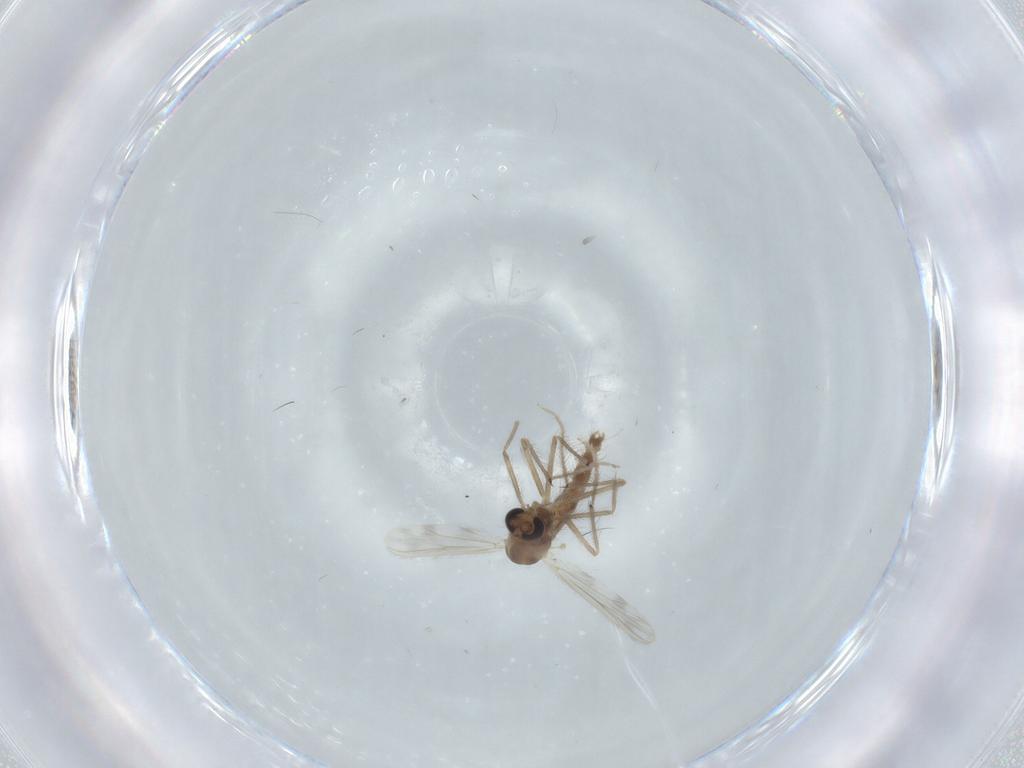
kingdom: Animalia
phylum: Arthropoda
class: Insecta
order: Diptera
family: Chironomidae
